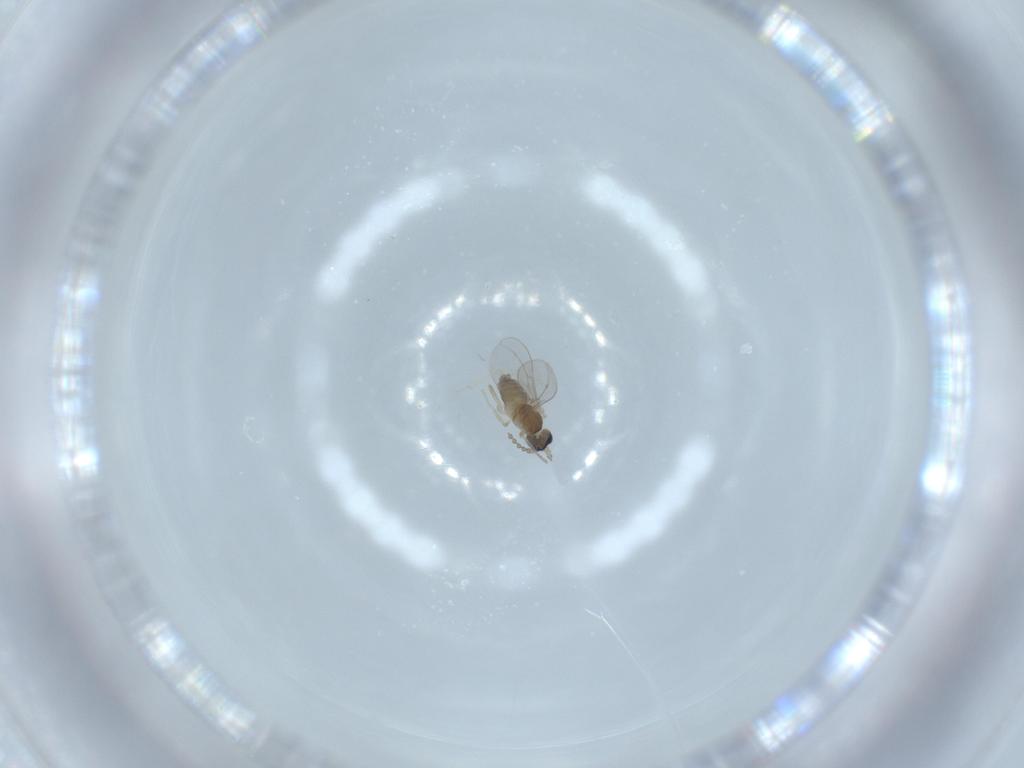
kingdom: Animalia
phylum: Arthropoda
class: Insecta
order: Diptera
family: Cecidomyiidae
